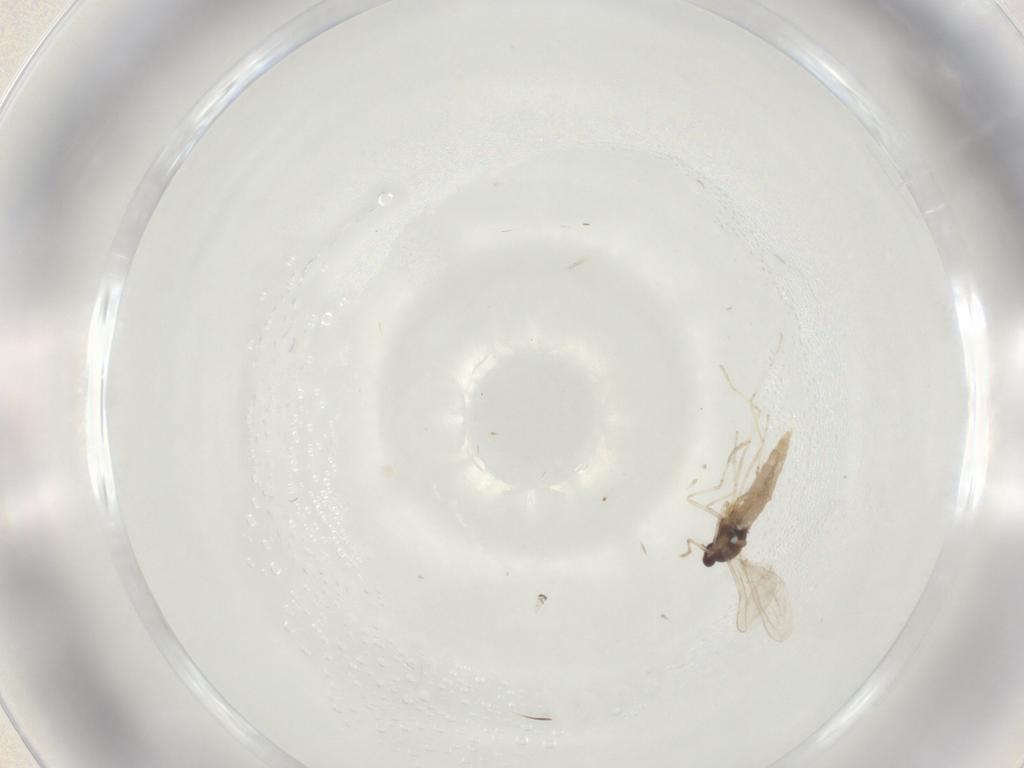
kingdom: Animalia
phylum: Arthropoda
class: Insecta
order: Diptera
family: Cecidomyiidae
